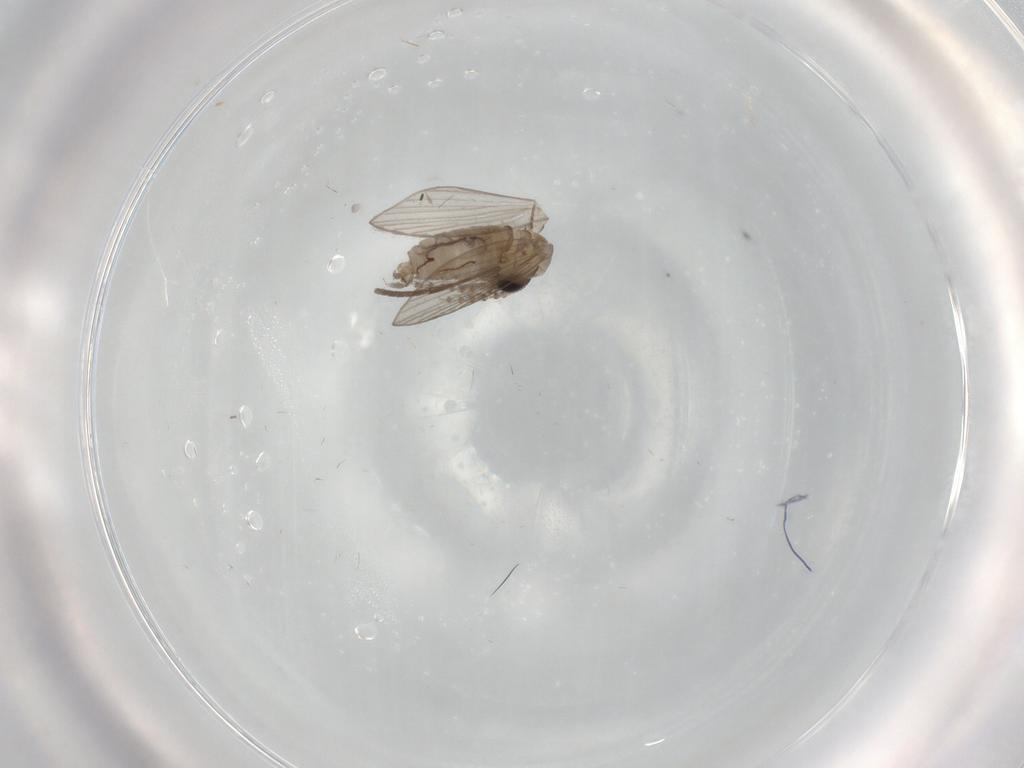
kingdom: Animalia
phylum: Arthropoda
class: Insecta
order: Diptera
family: Psychodidae
